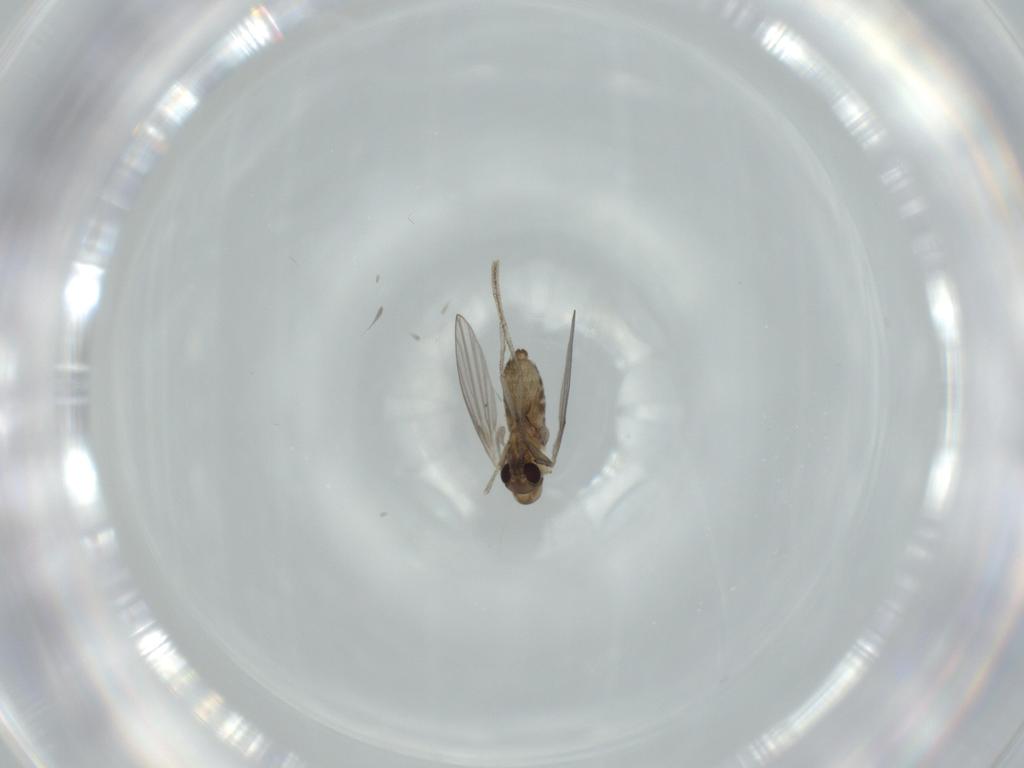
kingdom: Animalia
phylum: Arthropoda
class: Insecta
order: Diptera
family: Psychodidae
